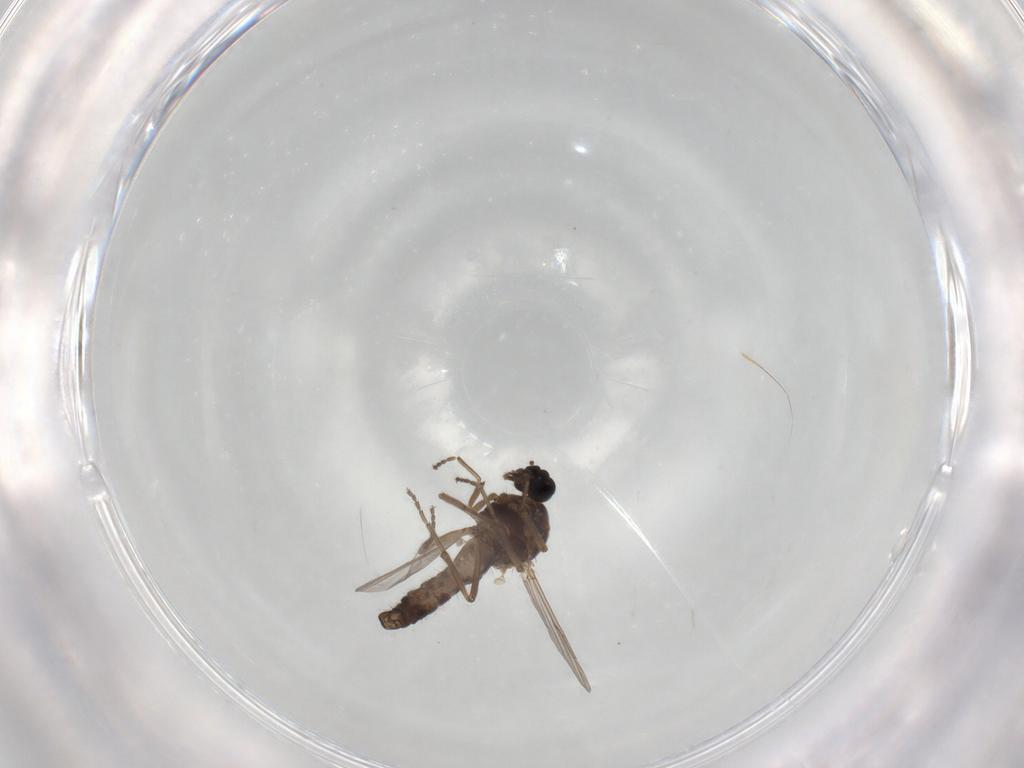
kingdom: Animalia
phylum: Arthropoda
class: Insecta
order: Diptera
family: Ceratopogonidae
